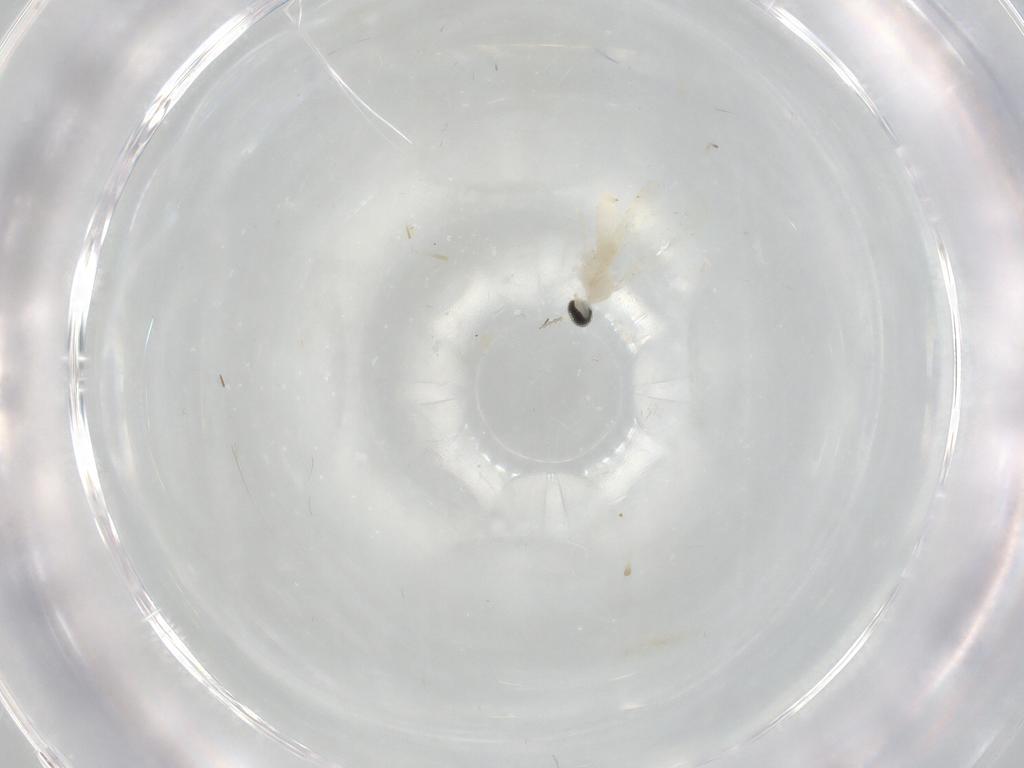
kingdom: Animalia
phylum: Arthropoda
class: Insecta
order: Diptera
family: Cecidomyiidae
